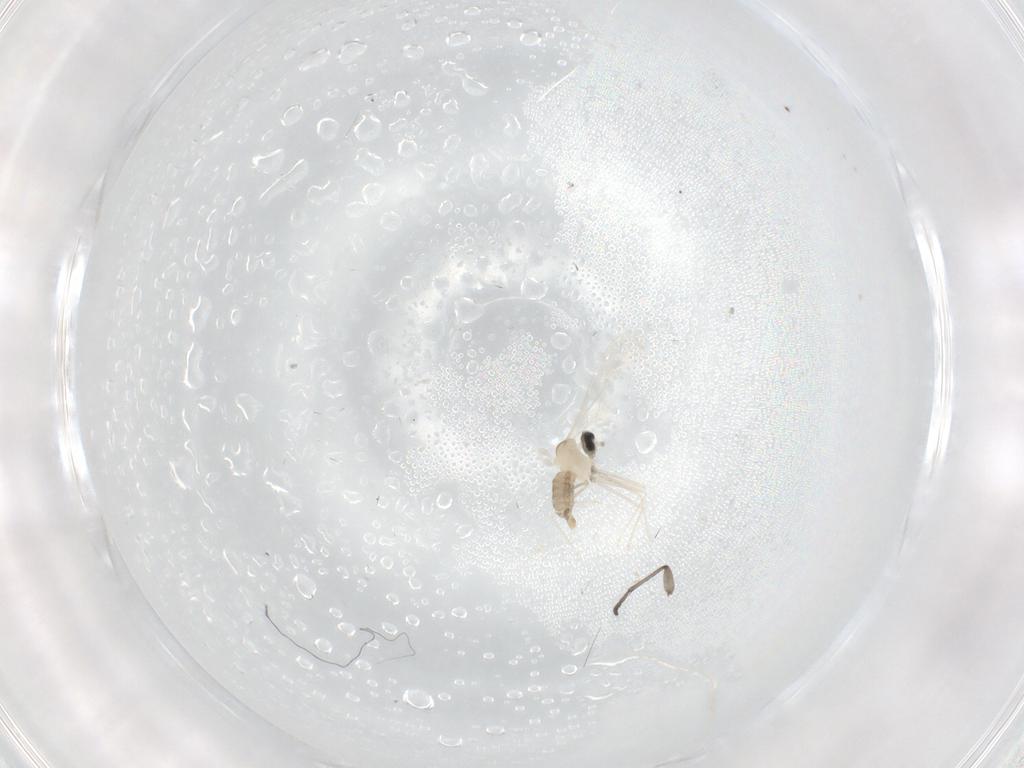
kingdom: Animalia
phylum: Arthropoda
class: Insecta
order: Diptera
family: Cecidomyiidae
